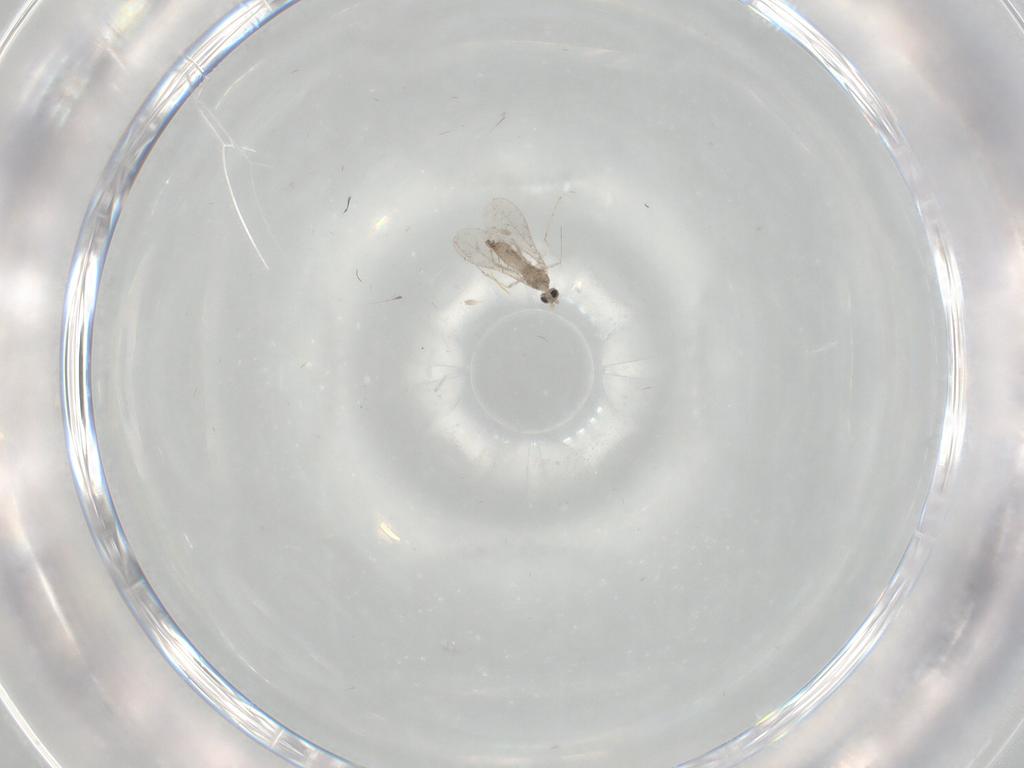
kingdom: Animalia
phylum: Arthropoda
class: Insecta
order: Diptera
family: Cecidomyiidae
